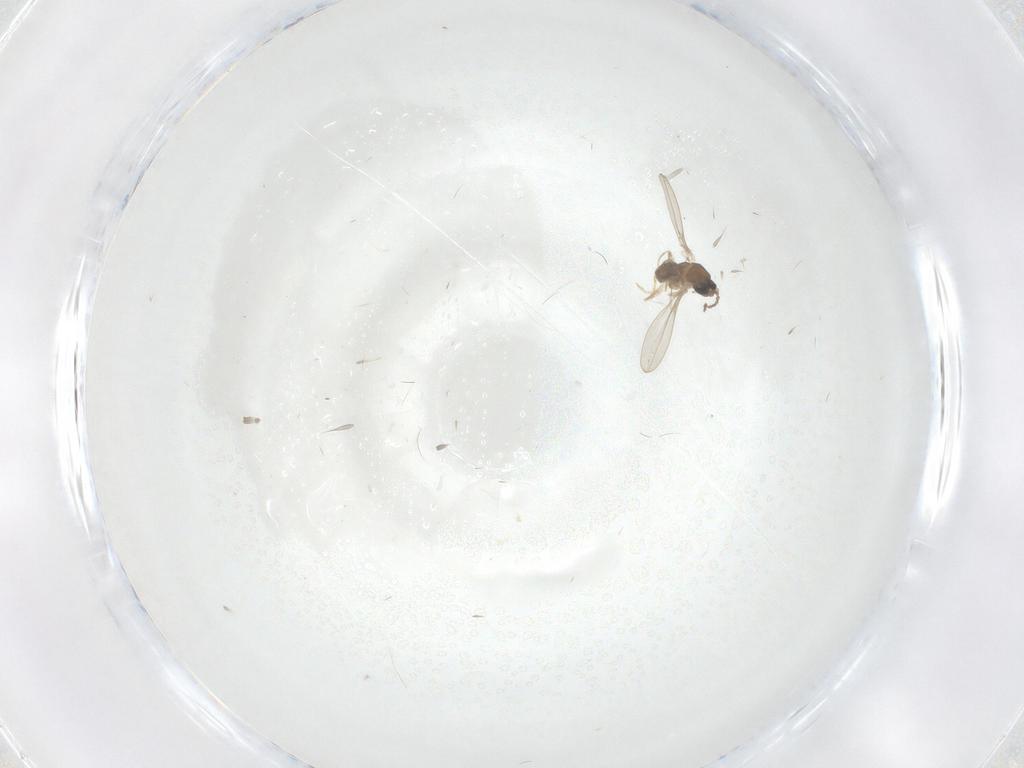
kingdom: Animalia
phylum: Arthropoda
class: Insecta
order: Diptera
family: Cecidomyiidae
